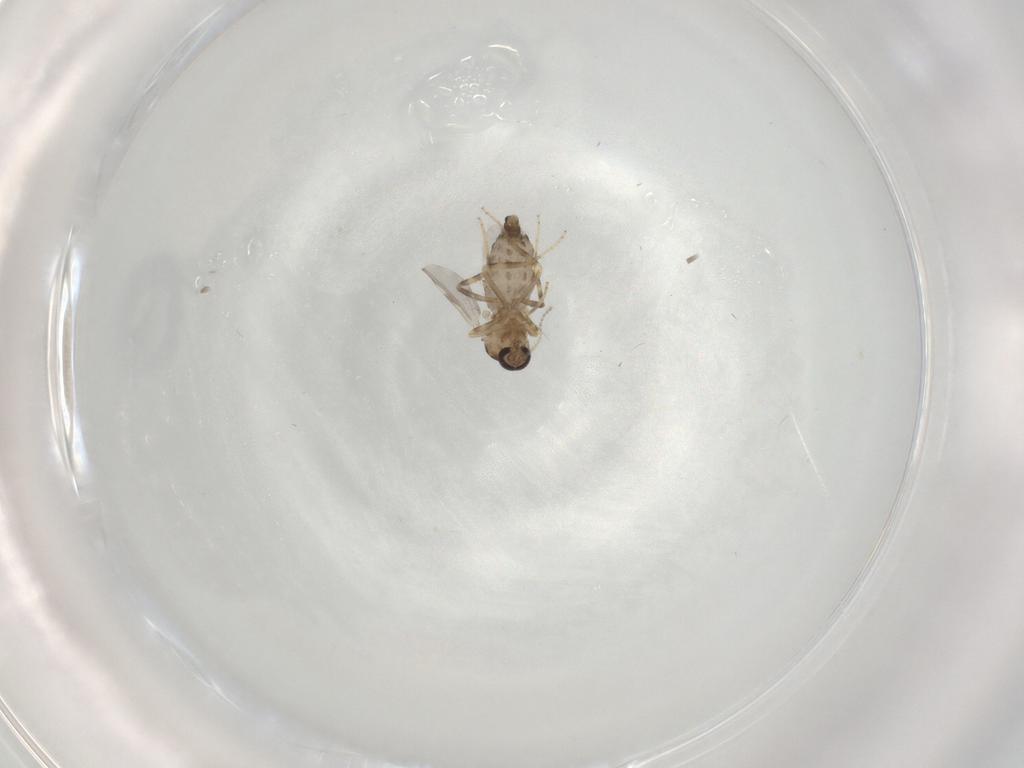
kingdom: Animalia
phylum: Arthropoda
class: Insecta
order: Diptera
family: Ceratopogonidae
